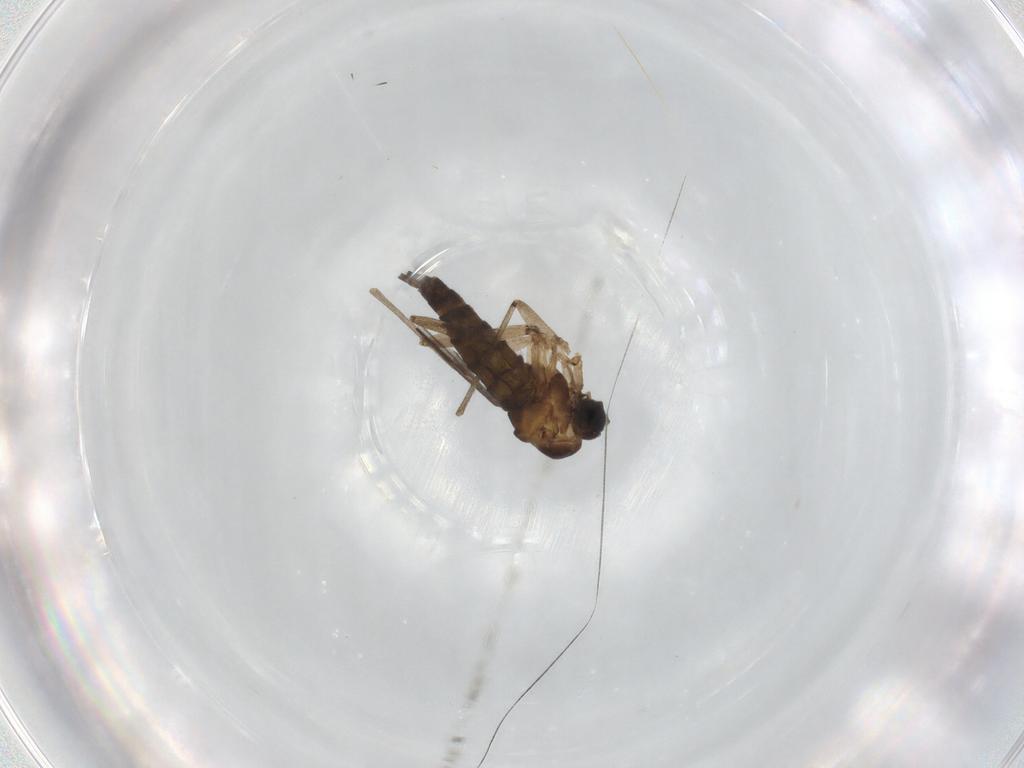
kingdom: Animalia
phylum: Arthropoda
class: Insecta
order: Diptera
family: Sciaridae
